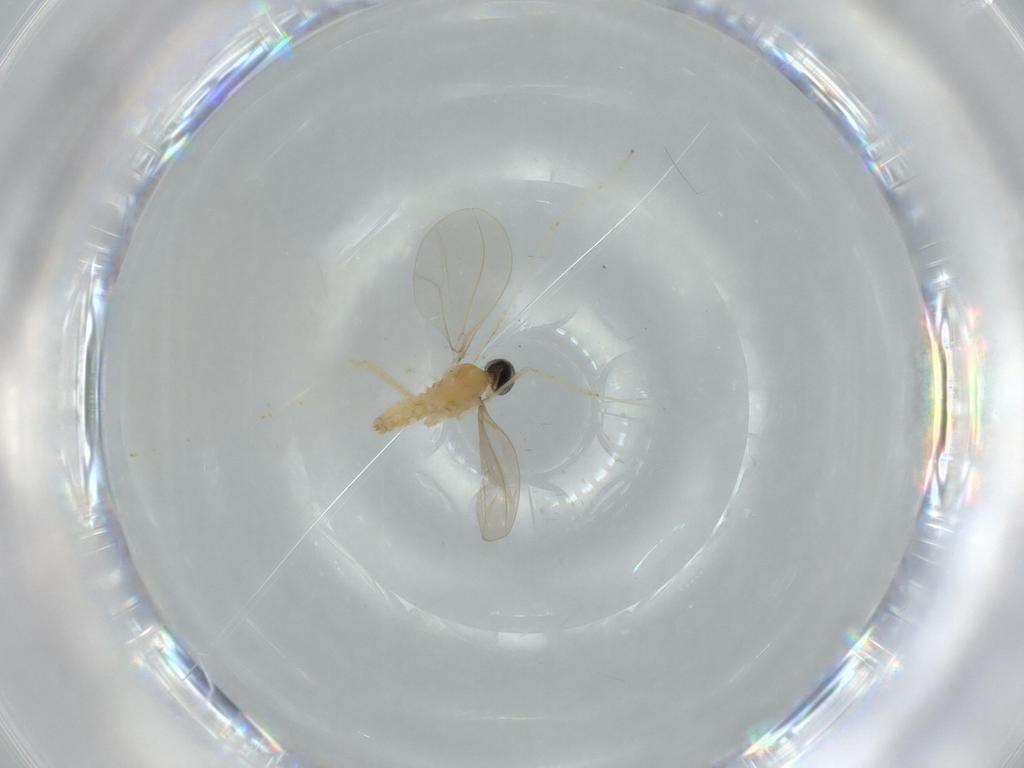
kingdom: Animalia
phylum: Arthropoda
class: Insecta
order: Diptera
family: Cecidomyiidae
